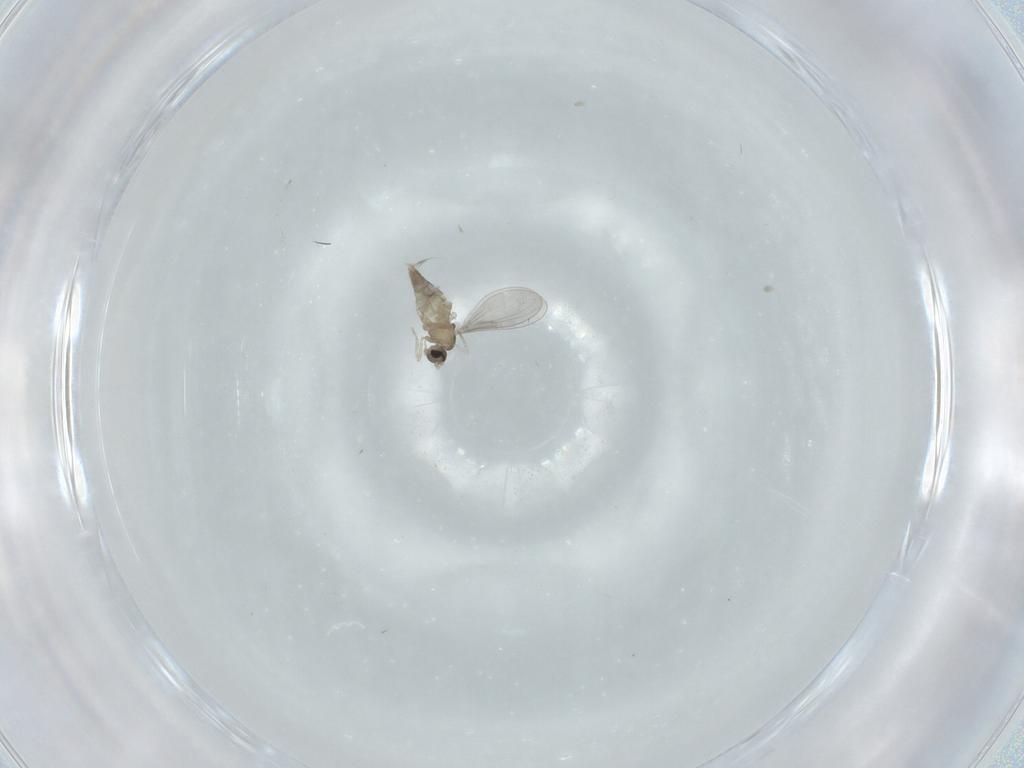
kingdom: Animalia
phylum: Arthropoda
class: Insecta
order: Diptera
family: Cecidomyiidae
